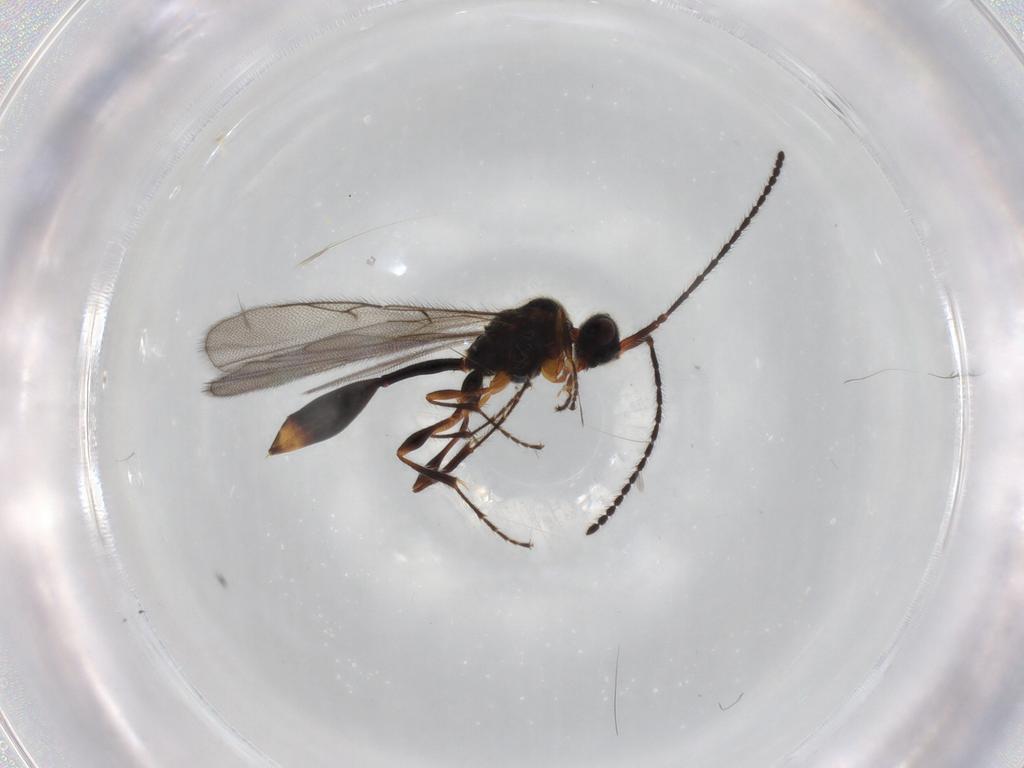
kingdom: Animalia
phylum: Arthropoda
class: Insecta
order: Hymenoptera
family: Diapriidae
